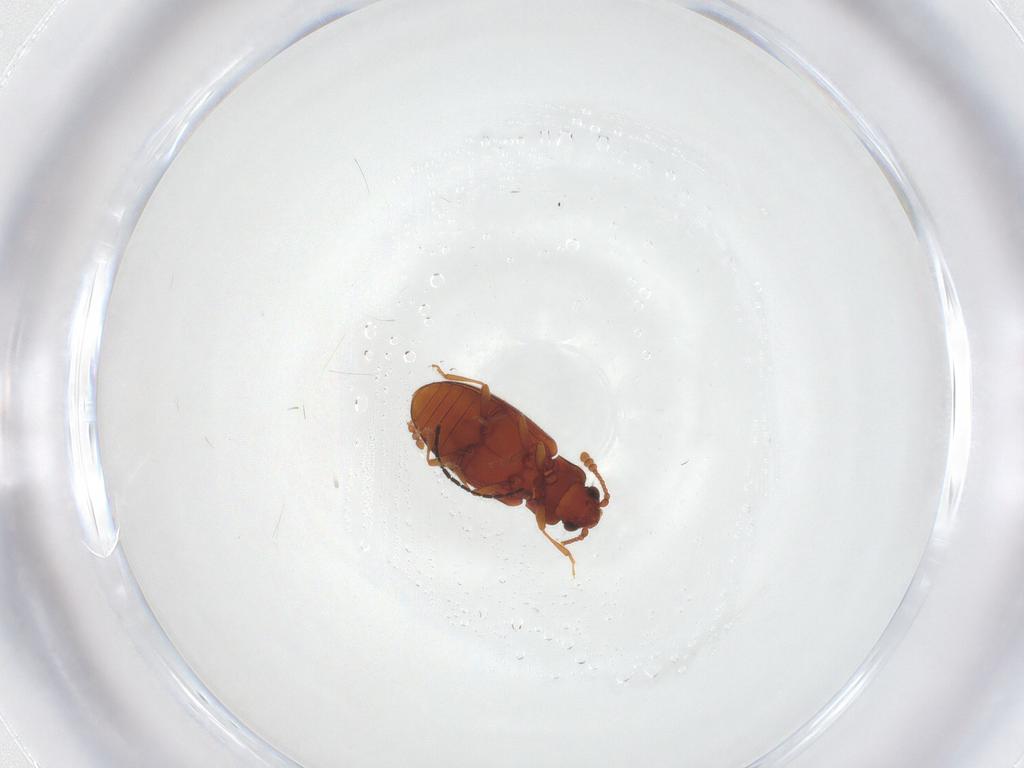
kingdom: Animalia
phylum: Arthropoda
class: Insecta
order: Coleoptera
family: Cryptophagidae
